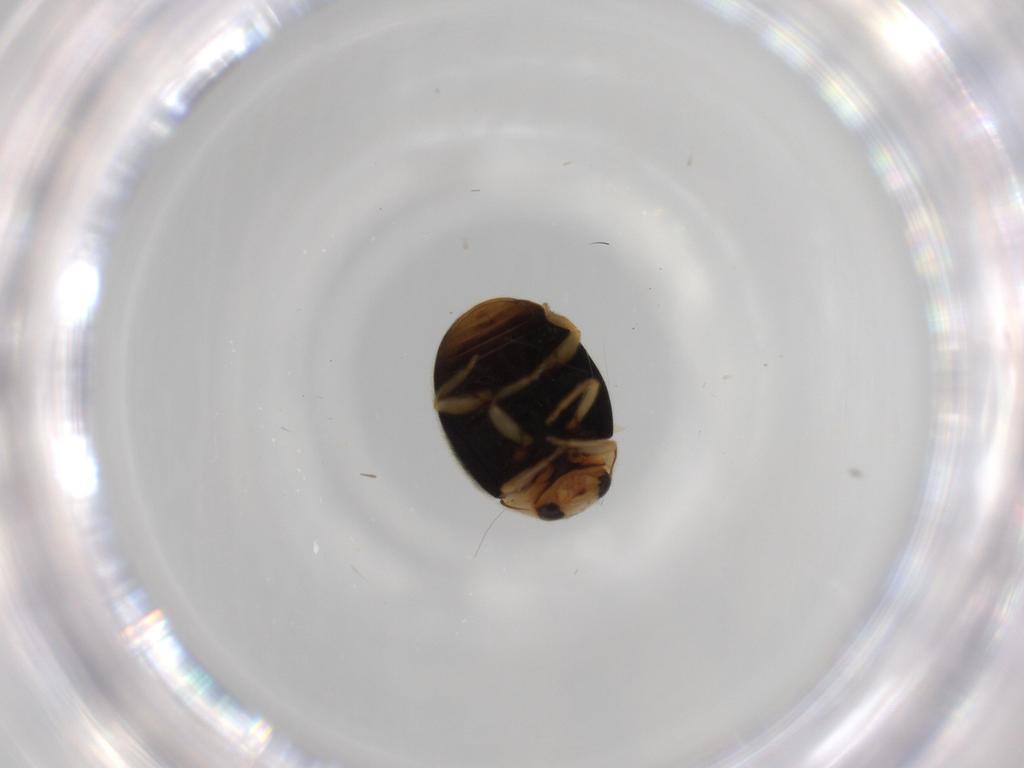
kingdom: Animalia
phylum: Arthropoda
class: Insecta
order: Coleoptera
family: Coccinellidae
